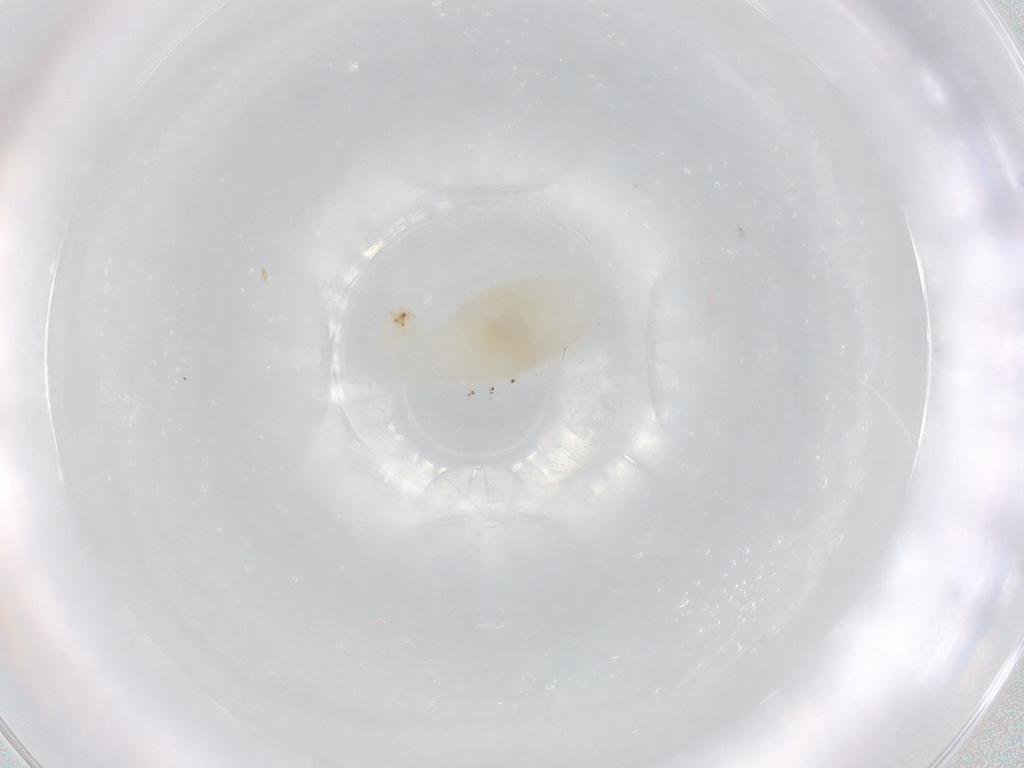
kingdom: Animalia
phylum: Arthropoda
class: Insecta
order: Hymenoptera
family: Formicidae
